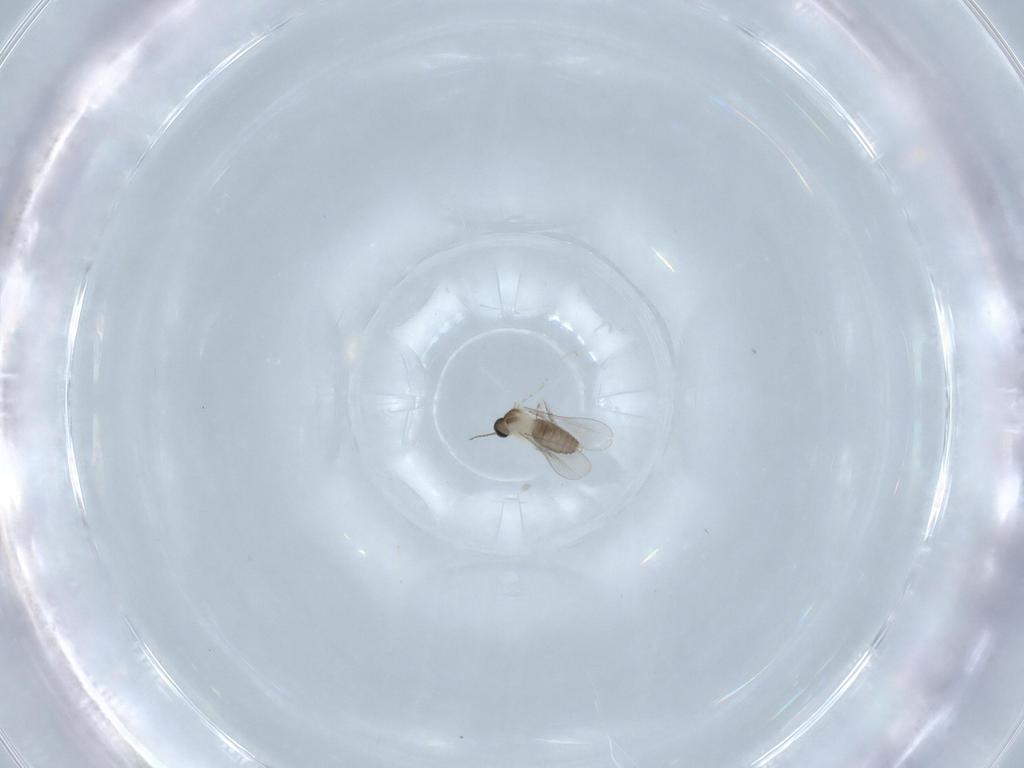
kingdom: Animalia
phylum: Arthropoda
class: Insecta
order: Diptera
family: Cecidomyiidae
